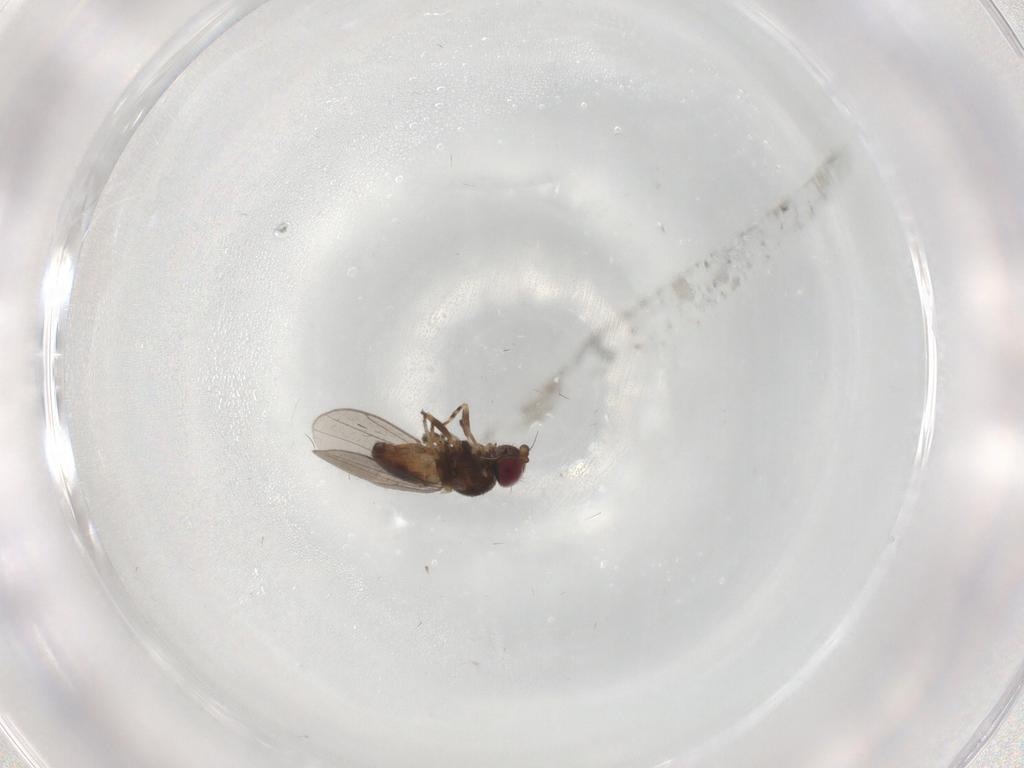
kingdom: Animalia
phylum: Arthropoda
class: Insecta
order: Diptera
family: Chloropidae
